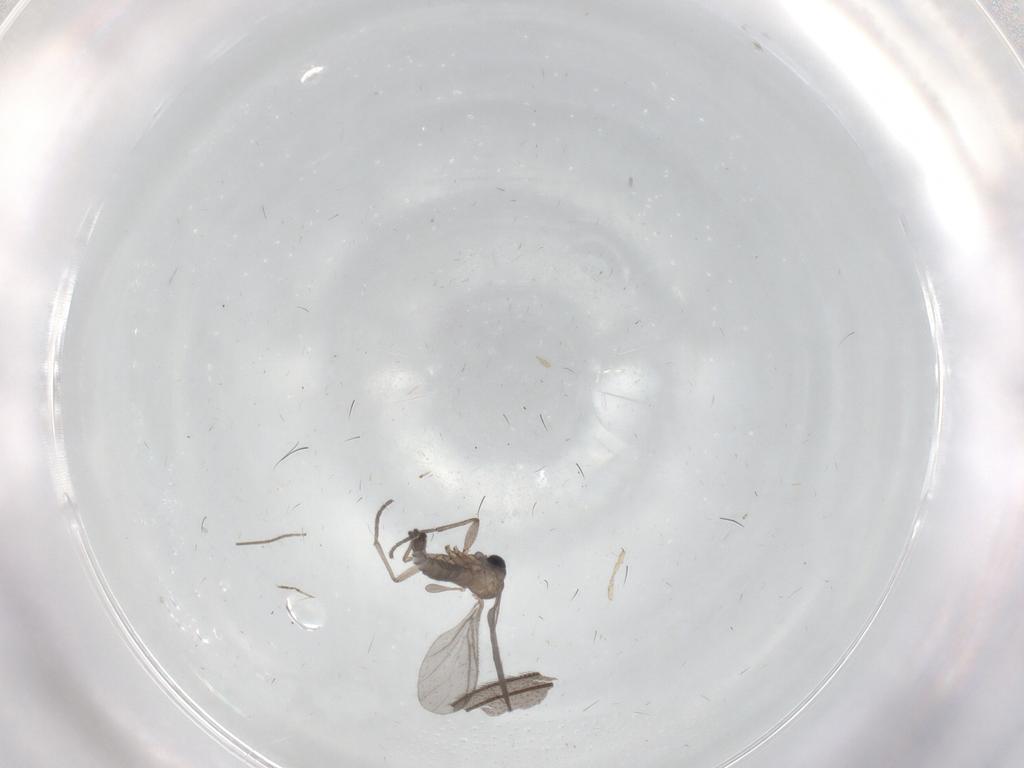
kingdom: Animalia
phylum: Arthropoda
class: Insecta
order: Diptera
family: Sciaridae
